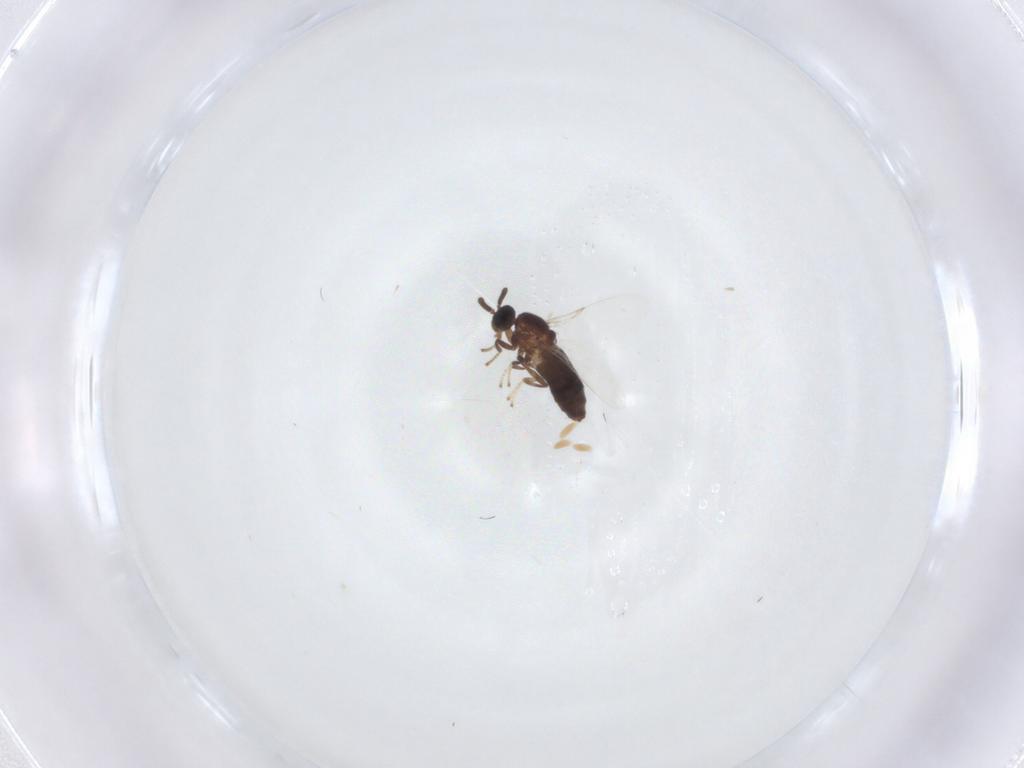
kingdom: Animalia
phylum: Arthropoda
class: Insecta
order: Diptera
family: Scatopsidae
